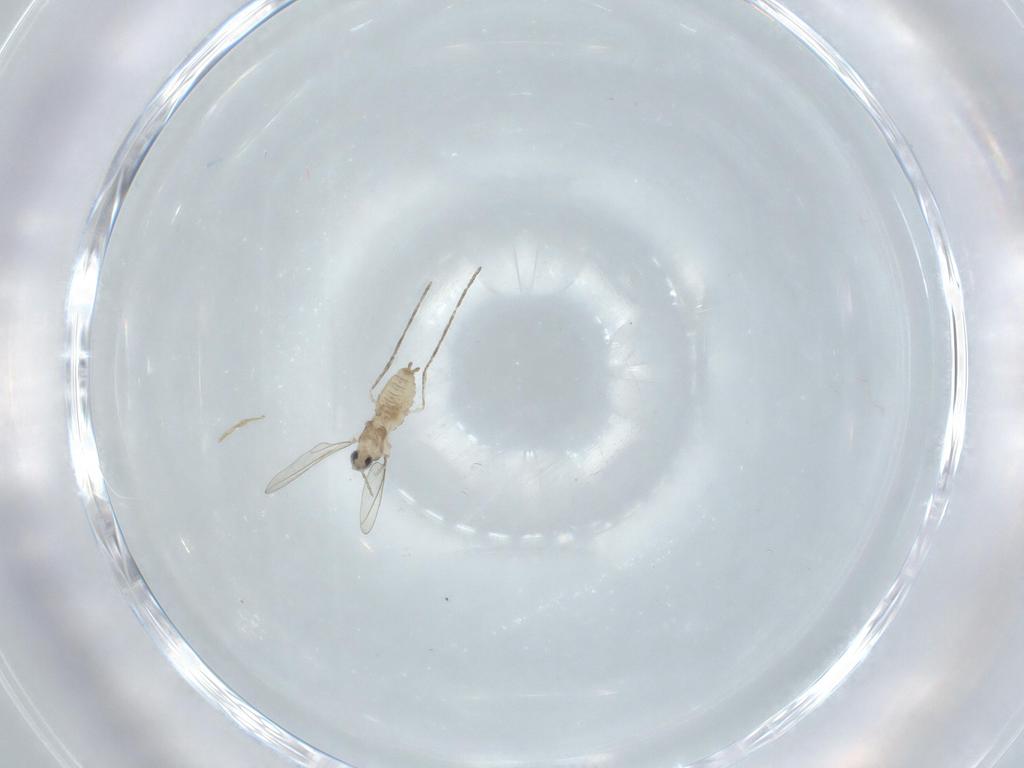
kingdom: Animalia
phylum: Arthropoda
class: Insecta
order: Diptera
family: Cecidomyiidae
